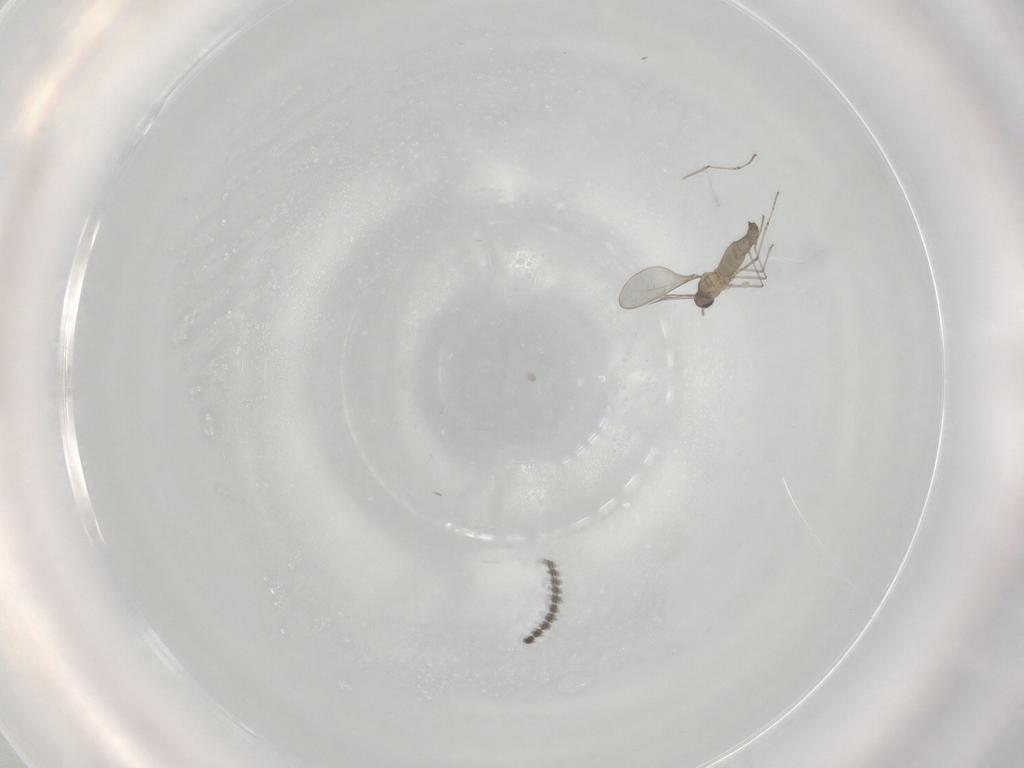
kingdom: Animalia
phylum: Arthropoda
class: Insecta
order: Diptera
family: Limoniidae
